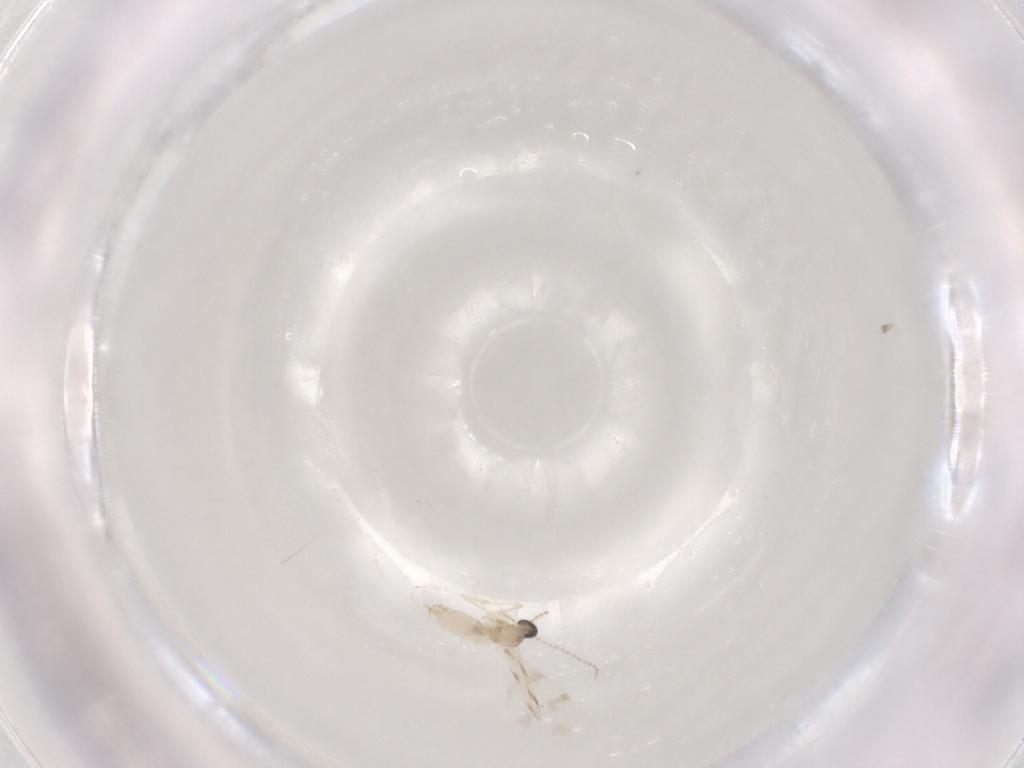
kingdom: Animalia
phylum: Arthropoda
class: Insecta
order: Diptera
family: Cecidomyiidae
